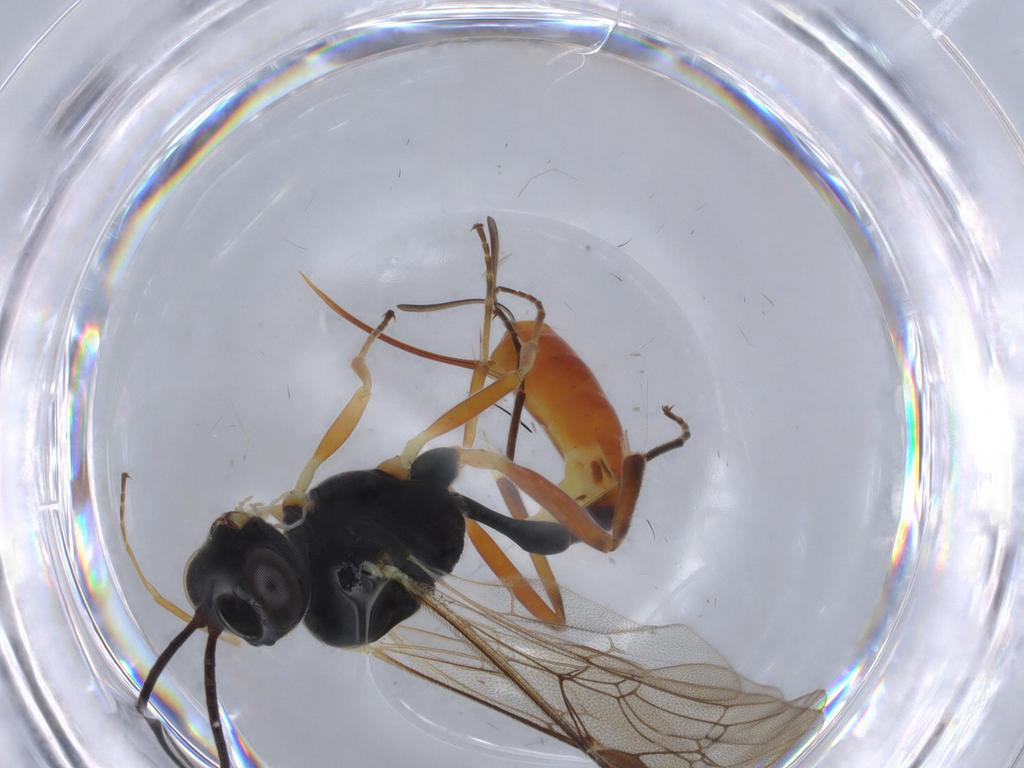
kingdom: Animalia
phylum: Arthropoda
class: Insecta
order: Hymenoptera
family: Ichneumonidae
